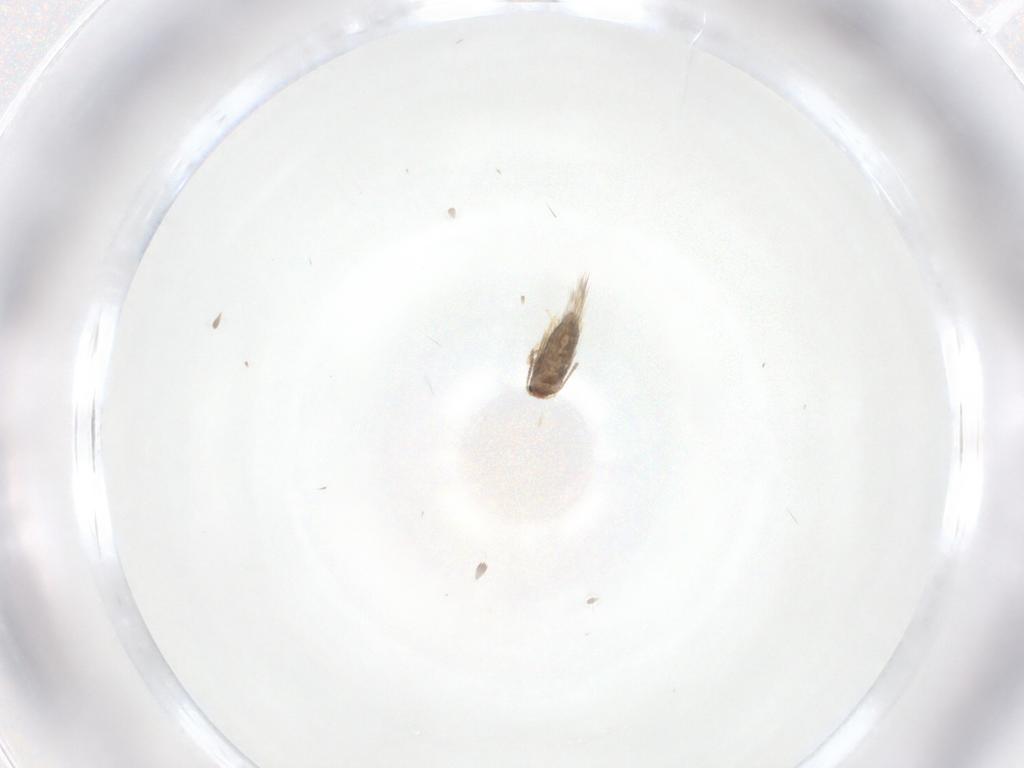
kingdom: Animalia
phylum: Arthropoda
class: Insecta
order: Lepidoptera
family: Nepticulidae
